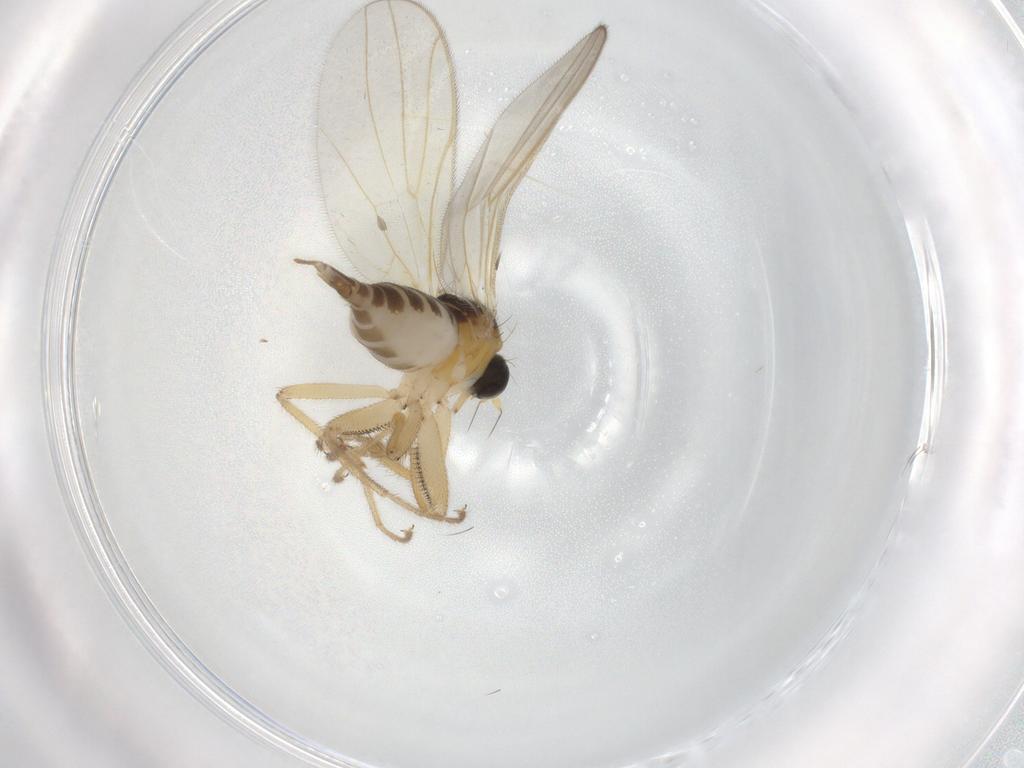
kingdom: Animalia
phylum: Arthropoda
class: Insecta
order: Diptera
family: Hybotidae
